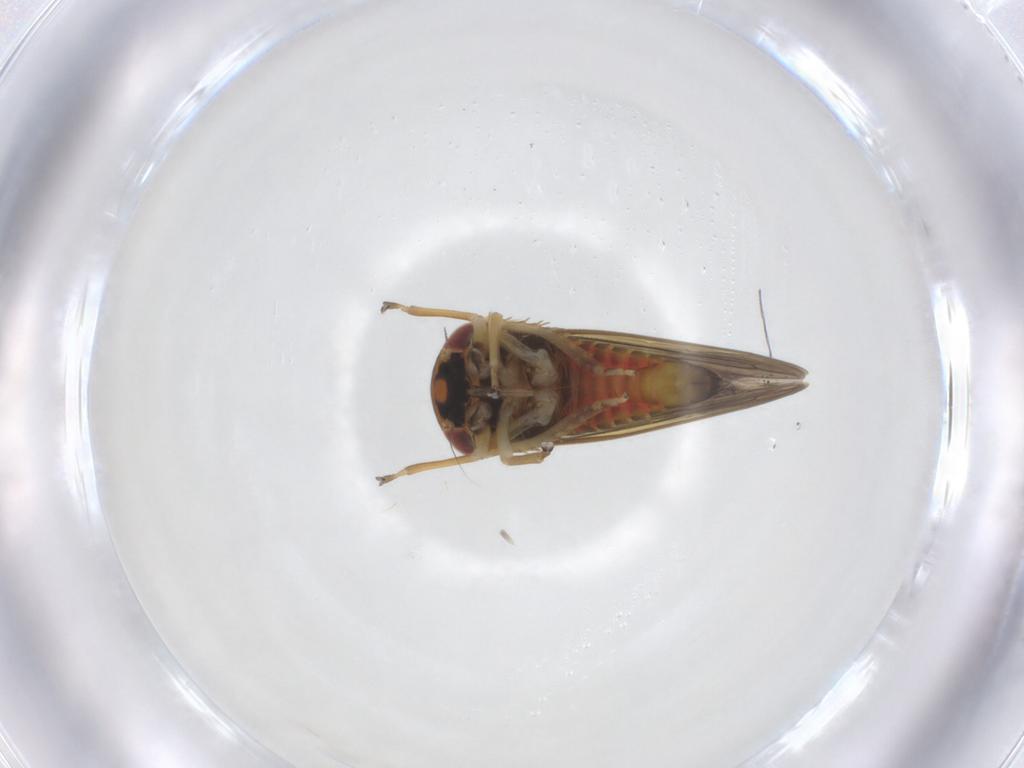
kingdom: Animalia
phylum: Arthropoda
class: Insecta
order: Hemiptera
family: Cicadellidae
